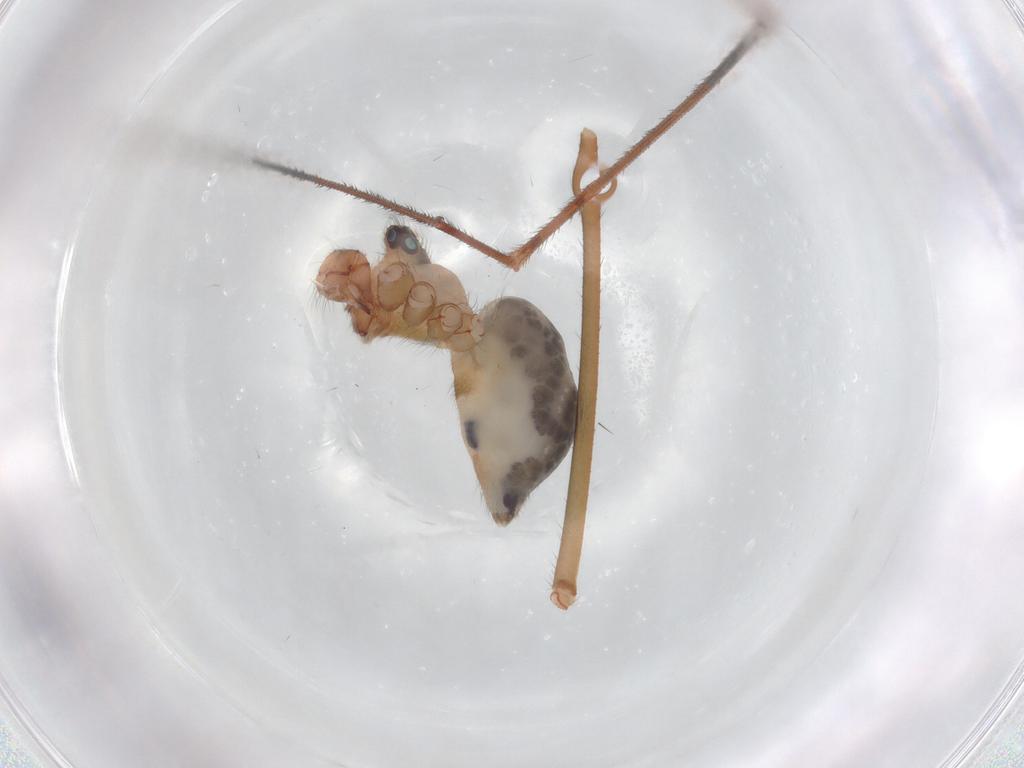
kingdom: Animalia
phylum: Arthropoda
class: Arachnida
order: Araneae
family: Pholcidae
